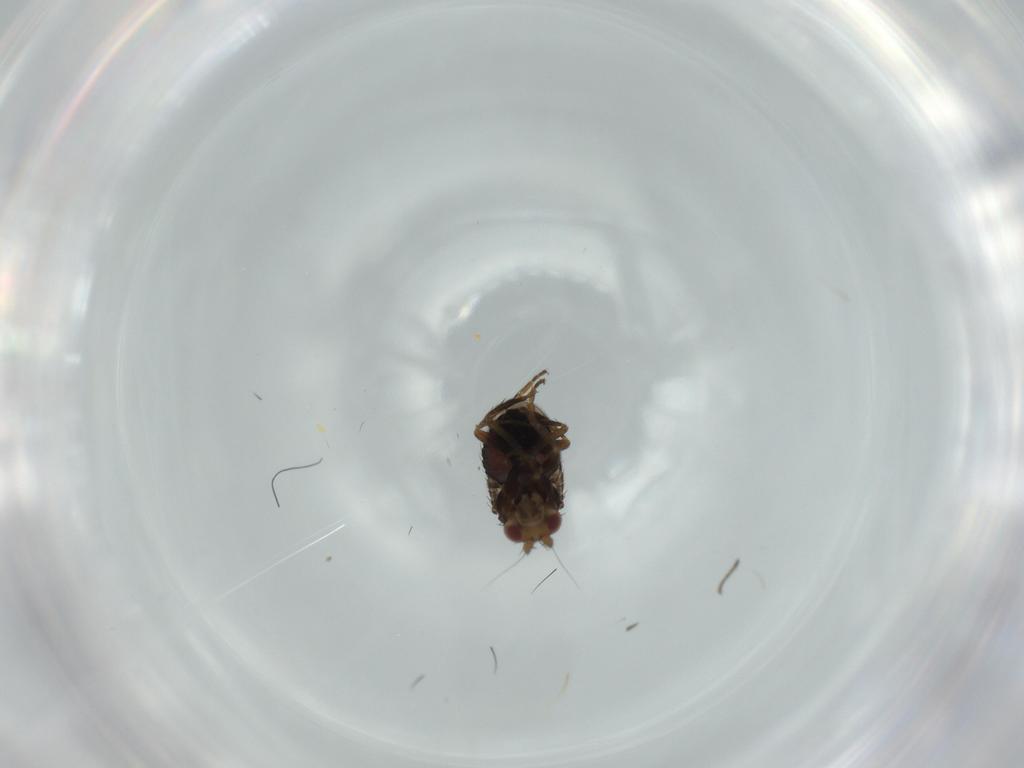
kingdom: Animalia
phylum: Arthropoda
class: Insecta
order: Diptera
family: Sphaeroceridae
